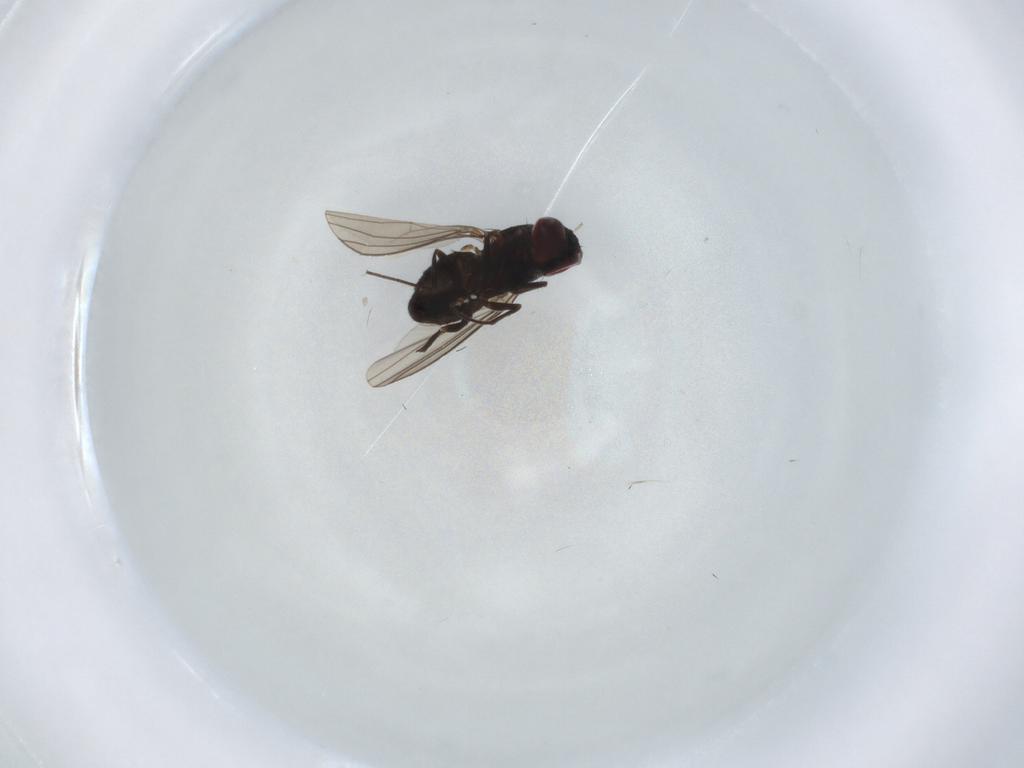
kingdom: Animalia
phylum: Arthropoda
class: Insecta
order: Diptera
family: Dolichopodidae
